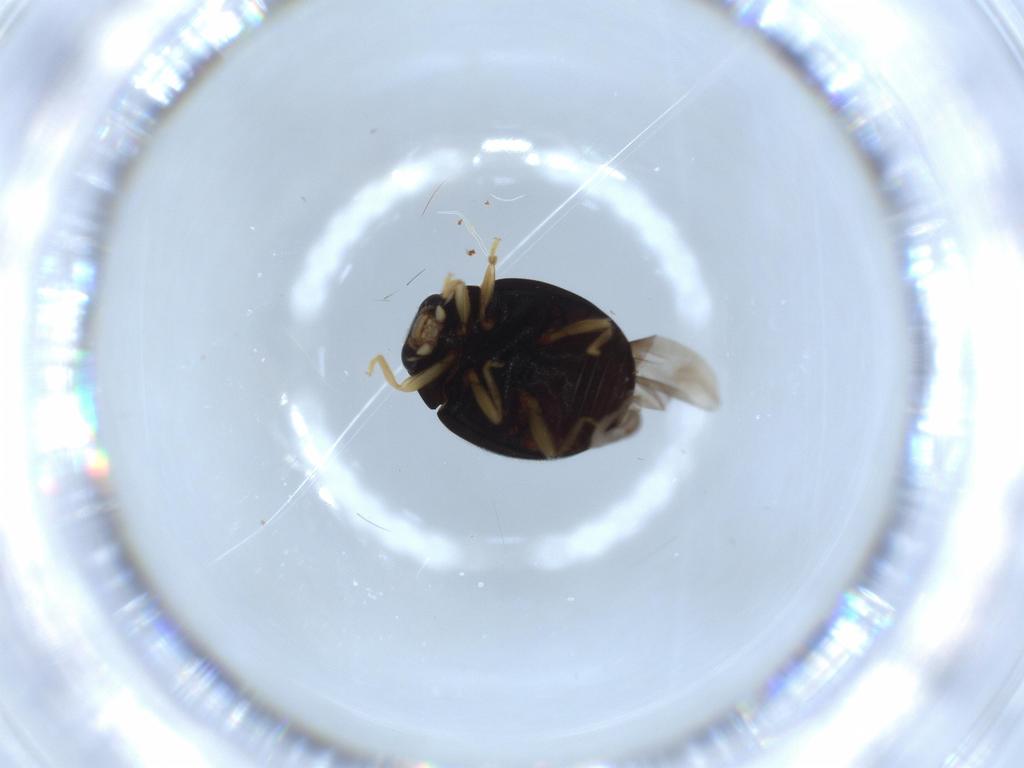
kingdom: Animalia
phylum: Arthropoda
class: Insecta
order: Coleoptera
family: Coccinellidae
